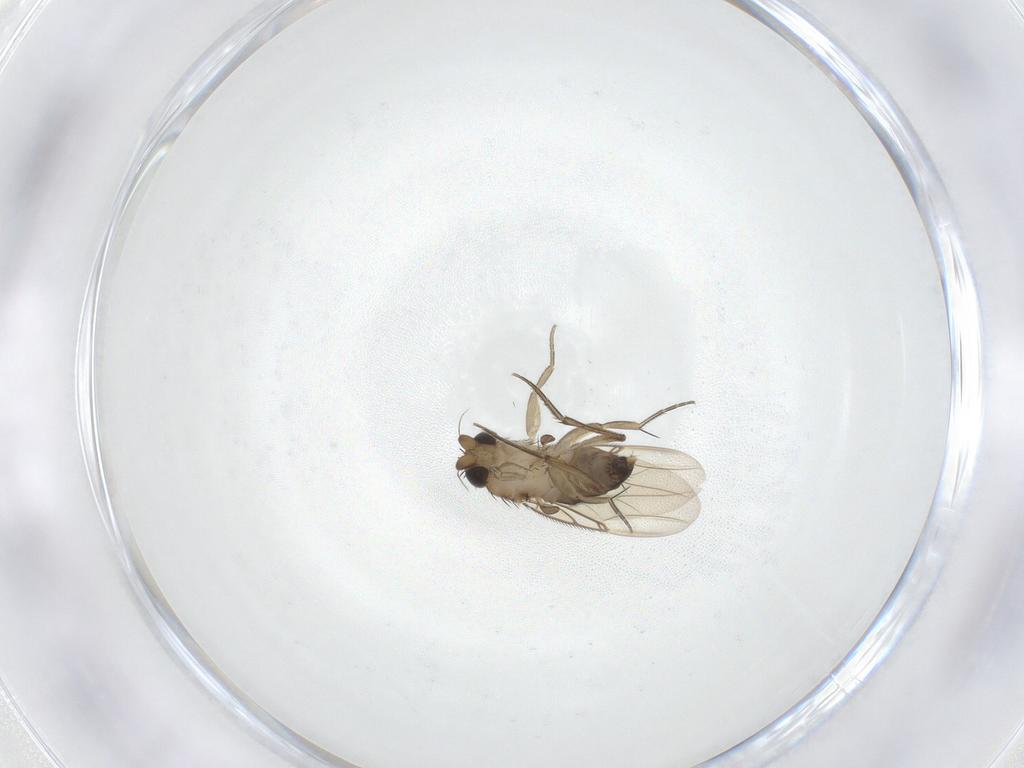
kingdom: Animalia
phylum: Arthropoda
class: Insecta
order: Diptera
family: Phoridae
